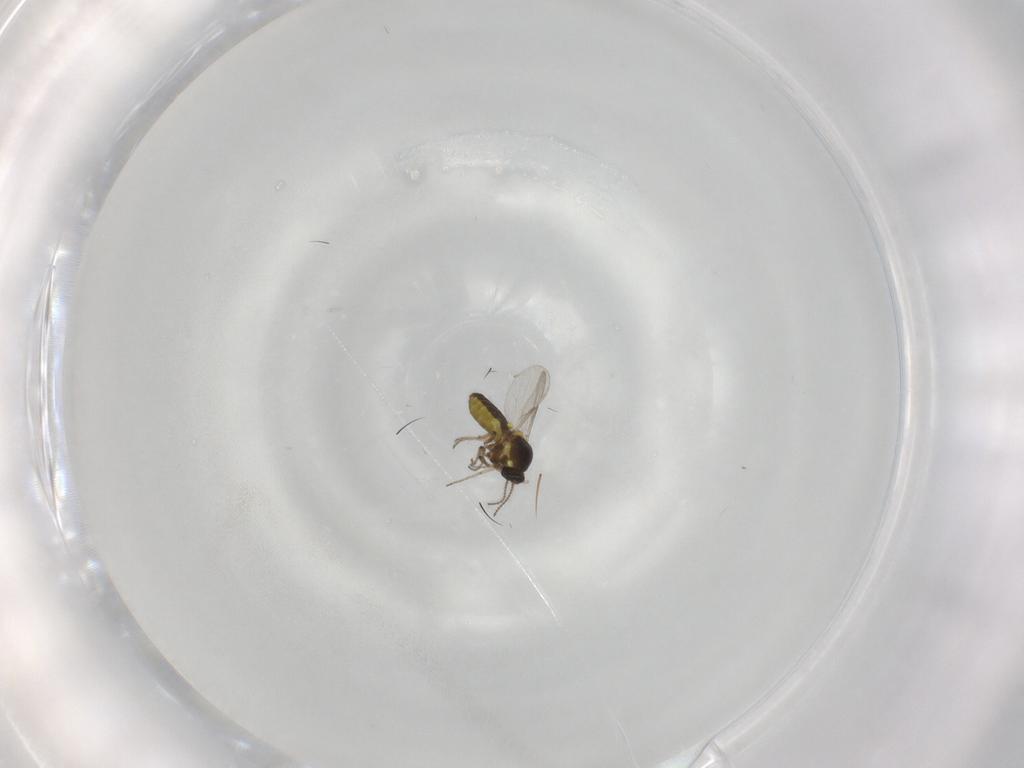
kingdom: Animalia
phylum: Arthropoda
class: Insecta
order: Diptera
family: Ceratopogonidae
